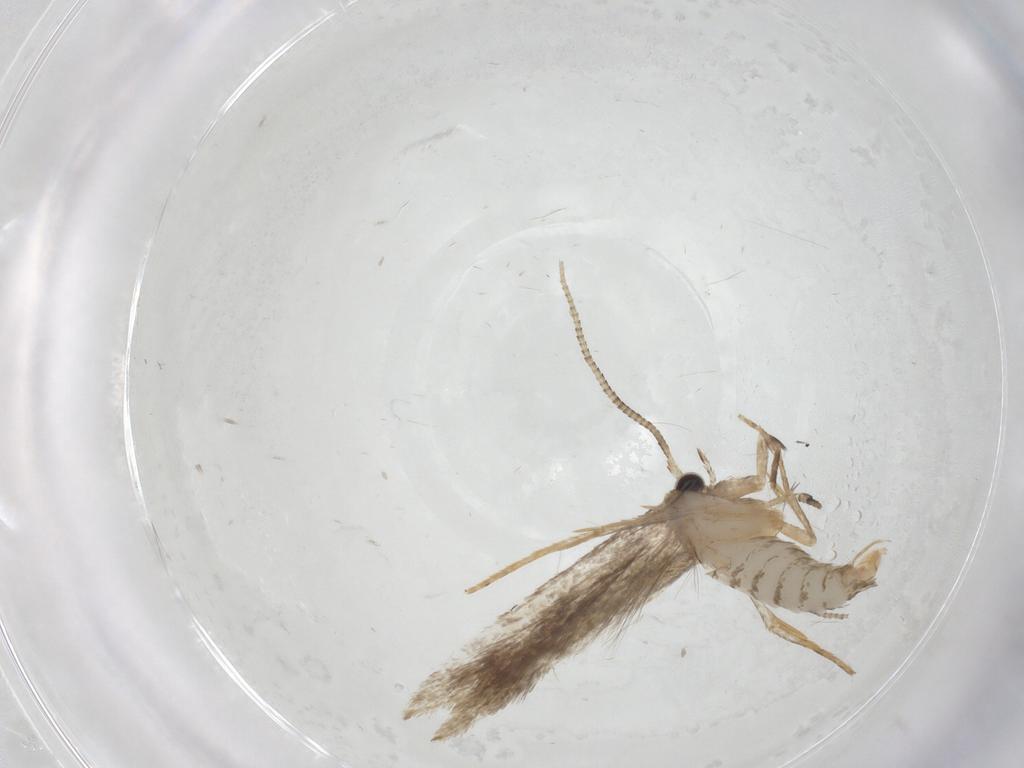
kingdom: Animalia
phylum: Arthropoda
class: Insecta
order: Lepidoptera
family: Tineidae
